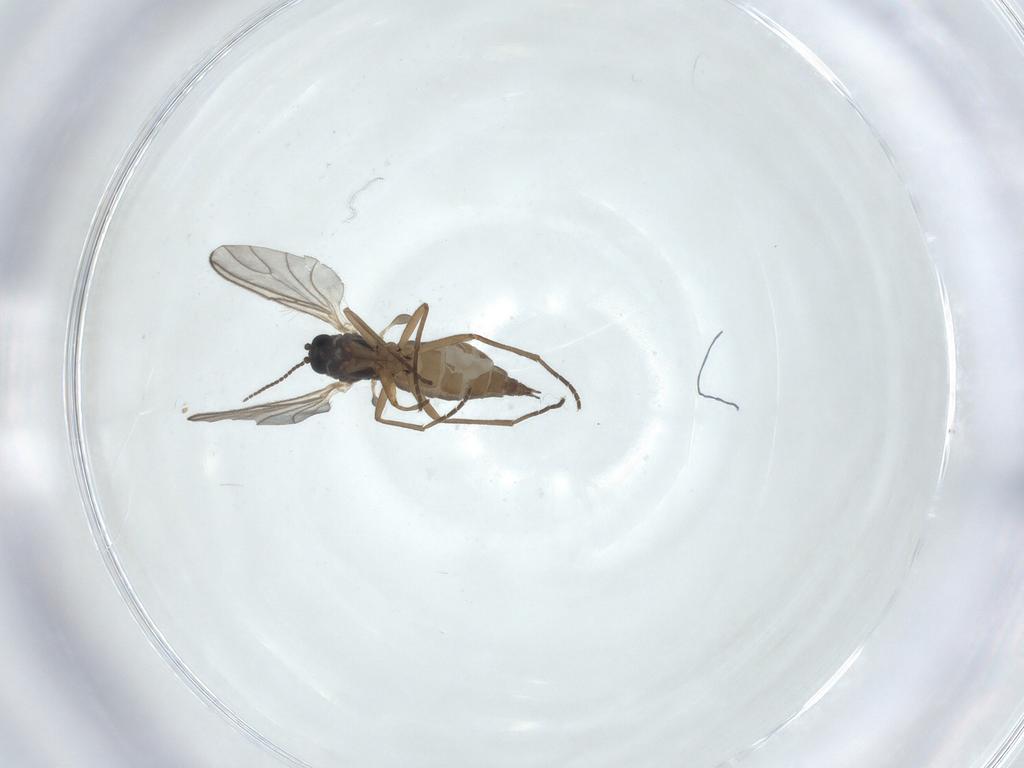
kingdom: Animalia
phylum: Arthropoda
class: Insecta
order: Diptera
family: Sciaridae
